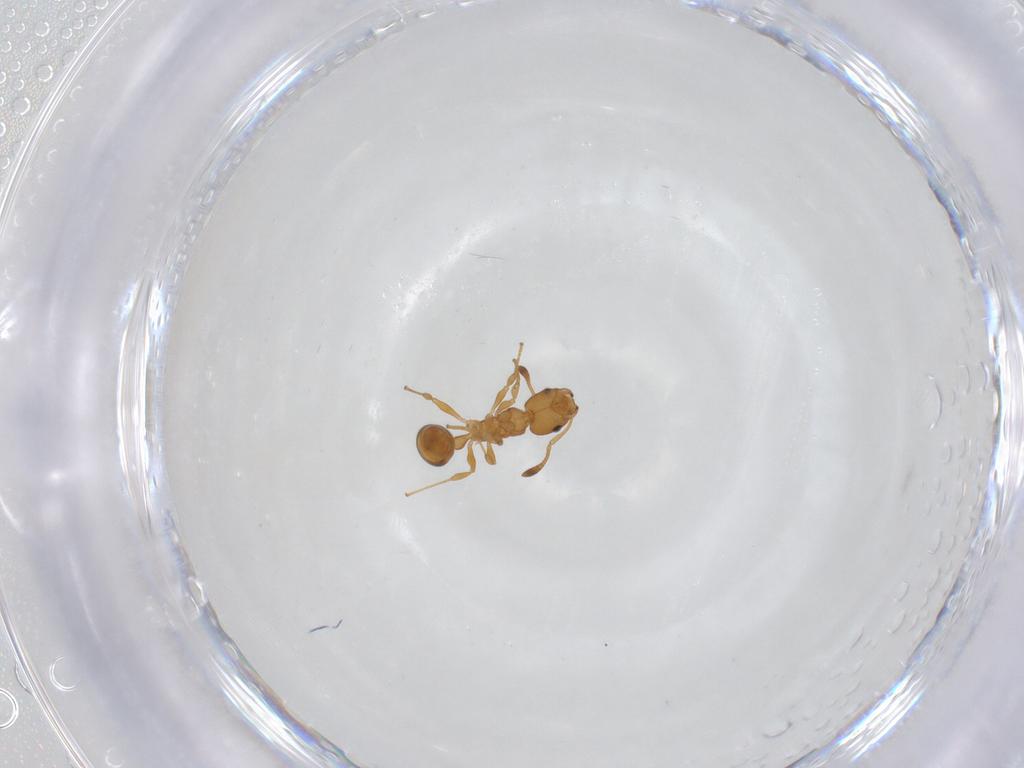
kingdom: Animalia
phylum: Arthropoda
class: Insecta
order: Hymenoptera
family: Formicidae
